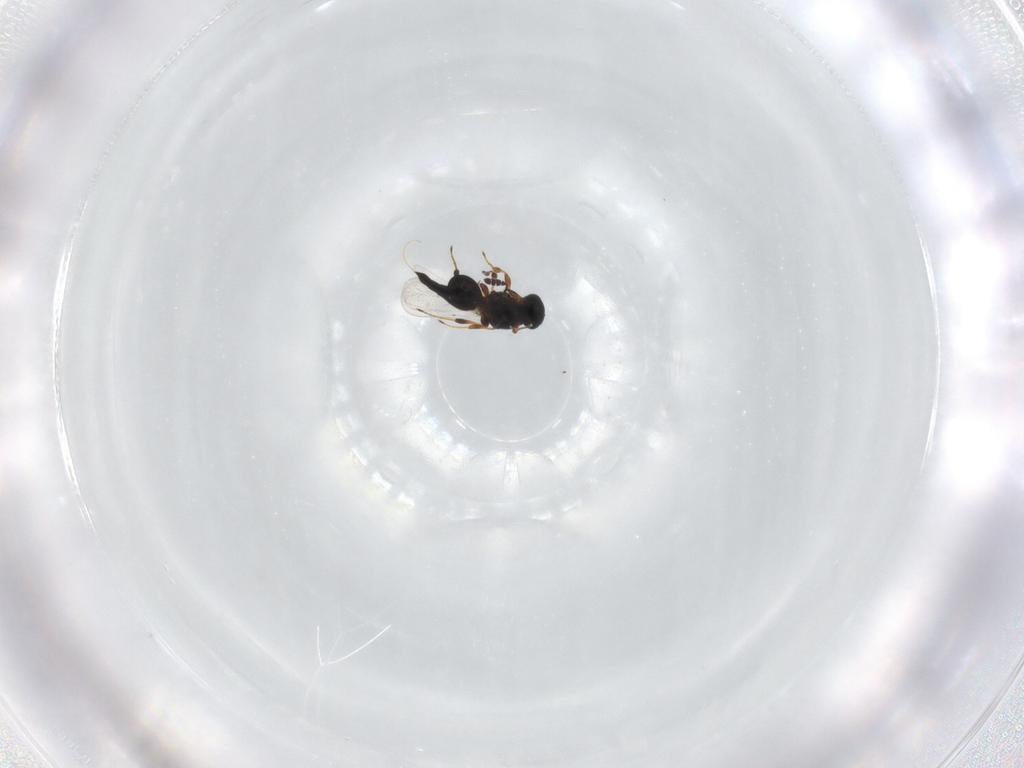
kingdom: Animalia
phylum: Arthropoda
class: Insecta
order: Hymenoptera
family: Platygastridae
